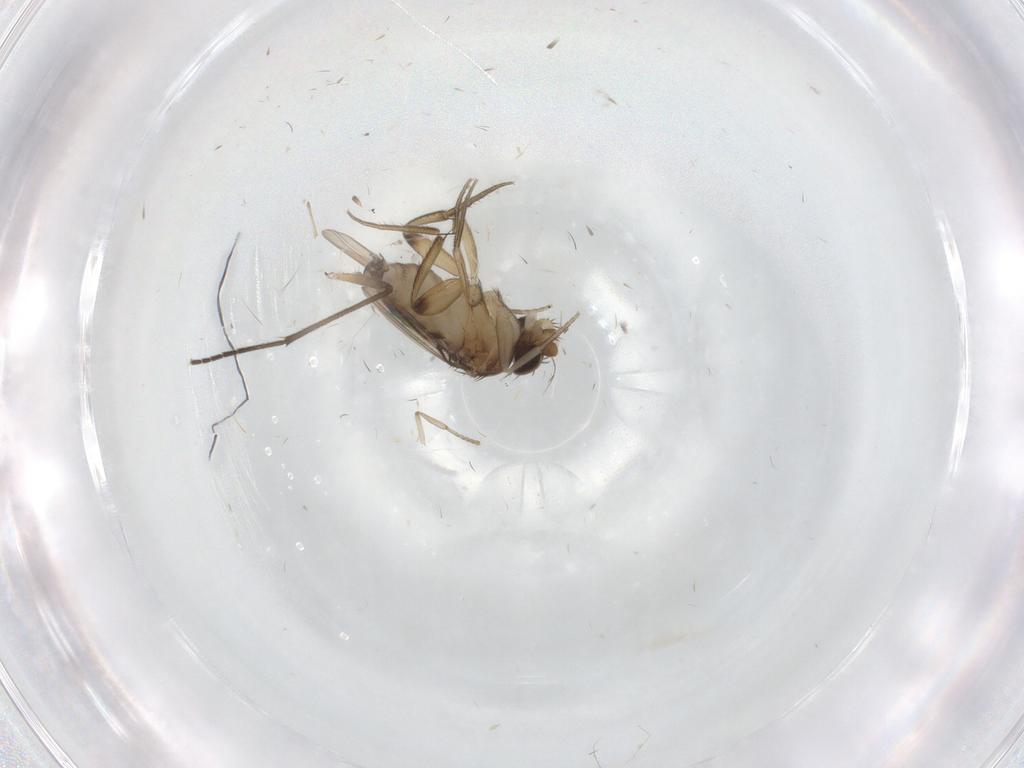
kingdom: Animalia
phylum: Arthropoda
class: Insecta
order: Diptera
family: Phoridae
